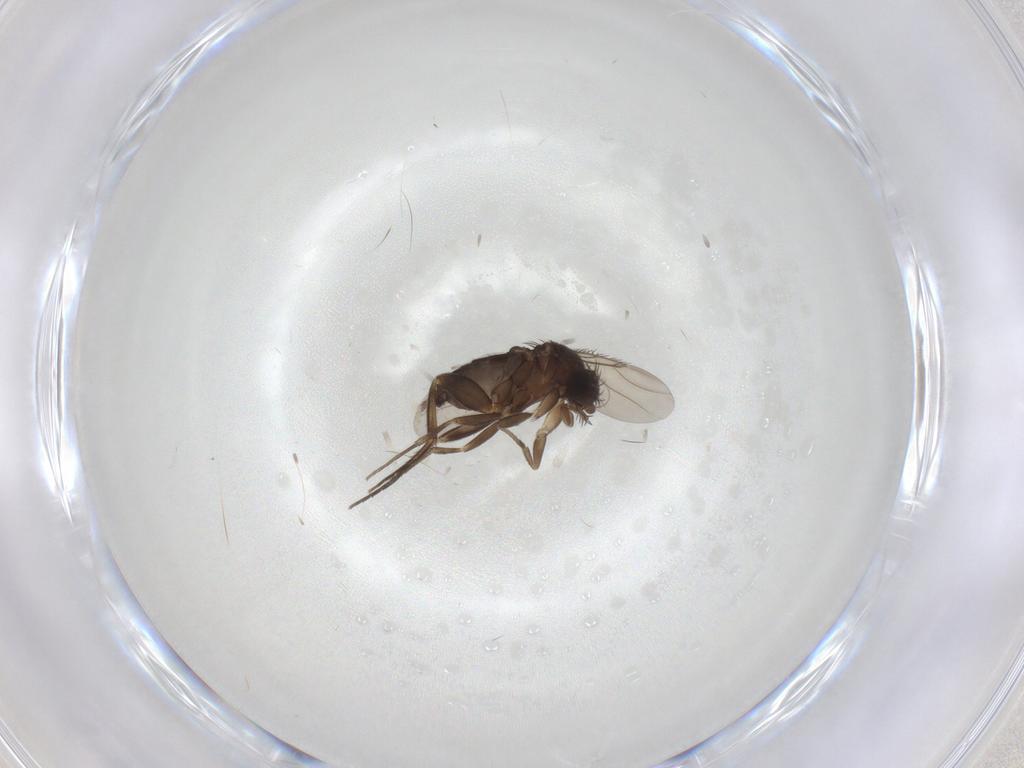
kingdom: Animalia
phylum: Arthropoda
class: Insecta
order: Diptera
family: Phoridae
